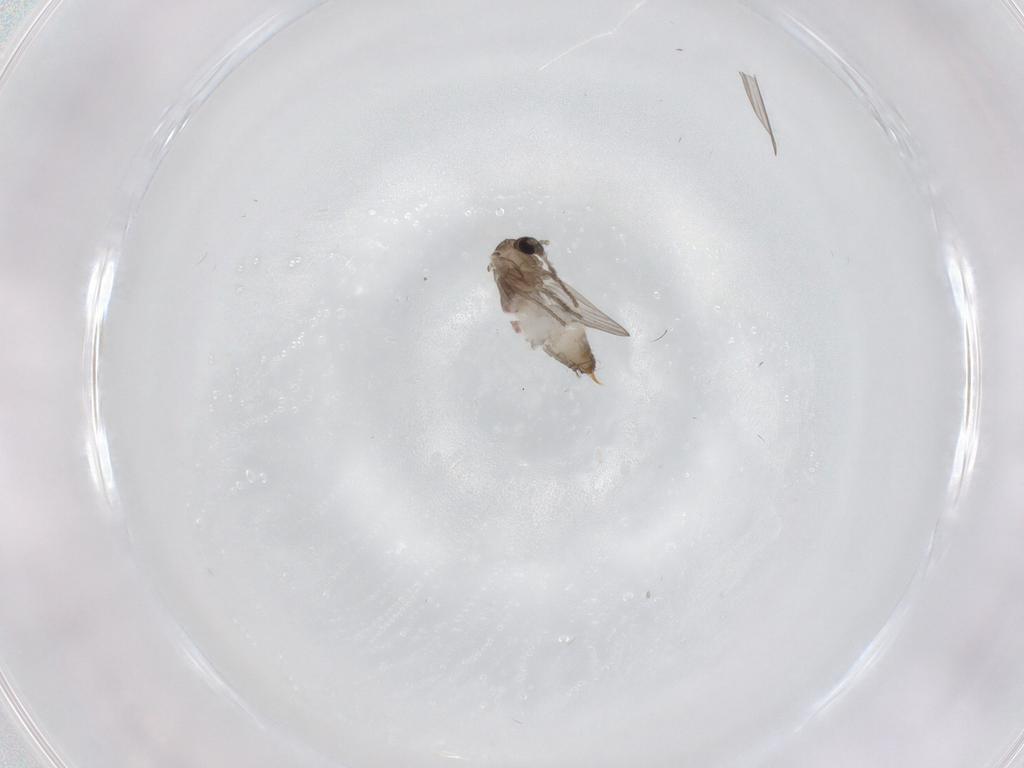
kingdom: Animalia
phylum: Arthropoda
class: Insecta
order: Diptera
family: Psychodidae
